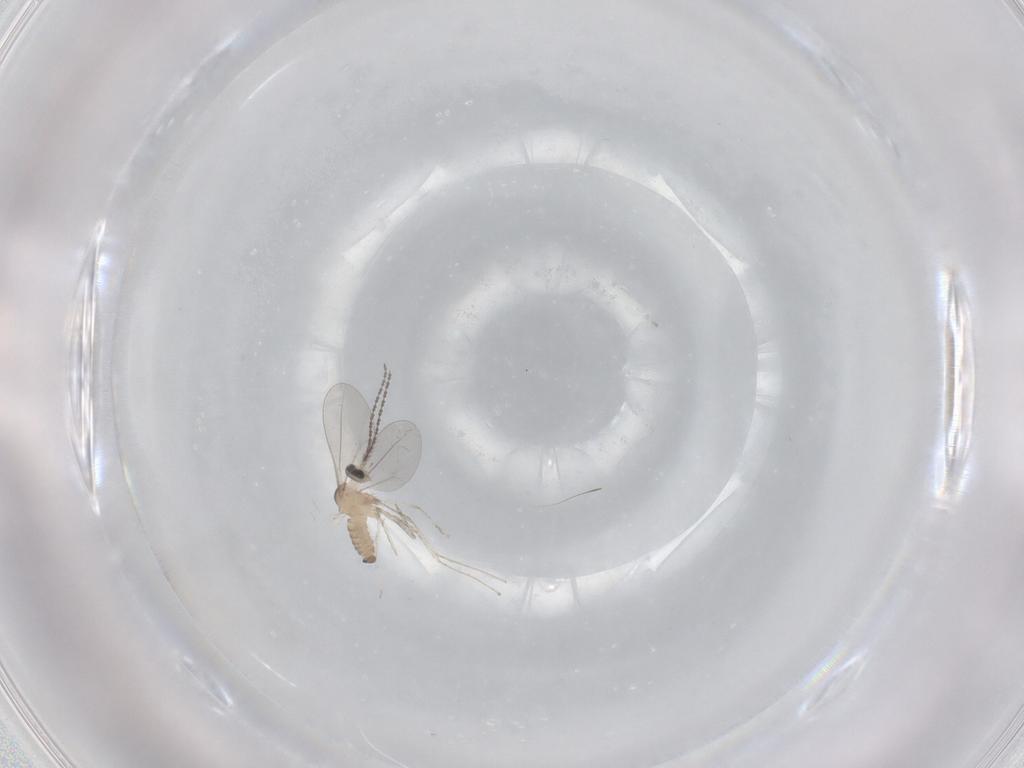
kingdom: Animalia
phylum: Arthropoda
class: Insecta
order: Diptera
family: Cecidomyiidae
